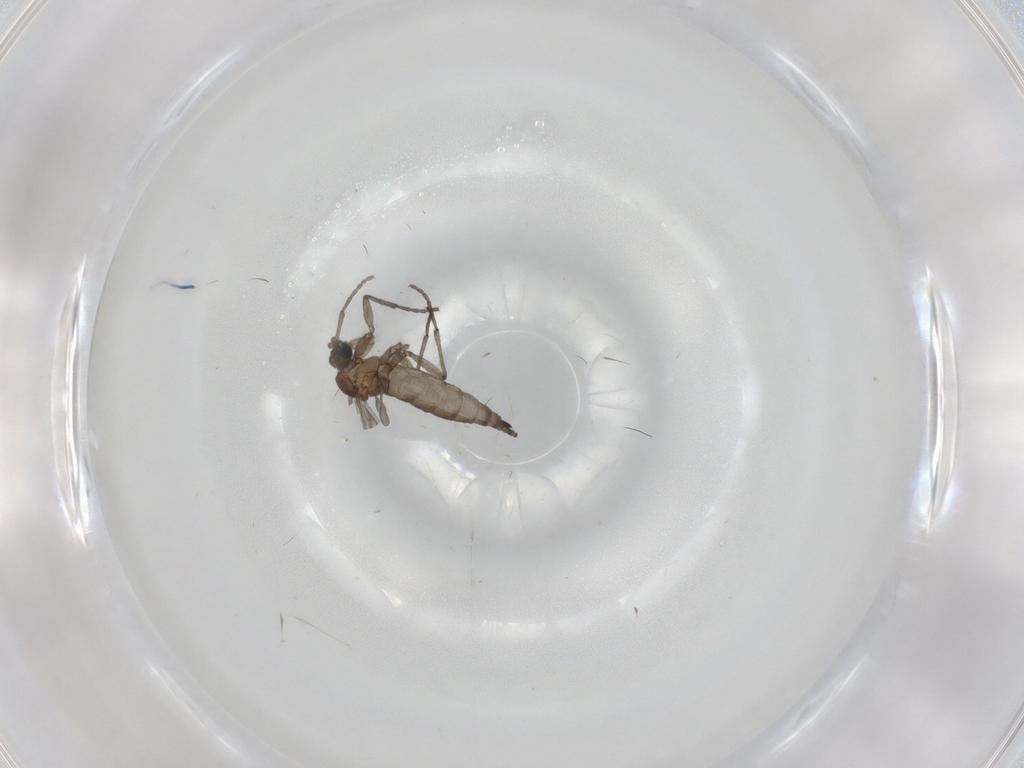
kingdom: Animalia
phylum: Arthropoda
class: Insecta
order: Diptera
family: Sciaridae
